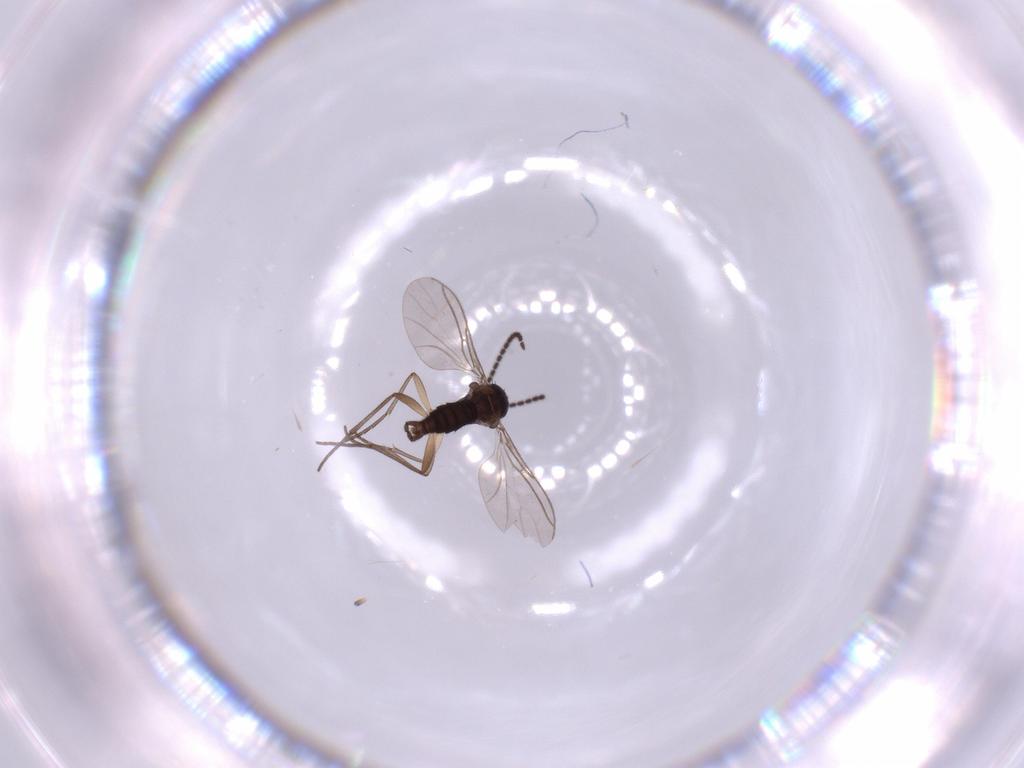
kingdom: Animalia
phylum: Arthropoda
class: Insecta
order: Diptera
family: Sciaridae
